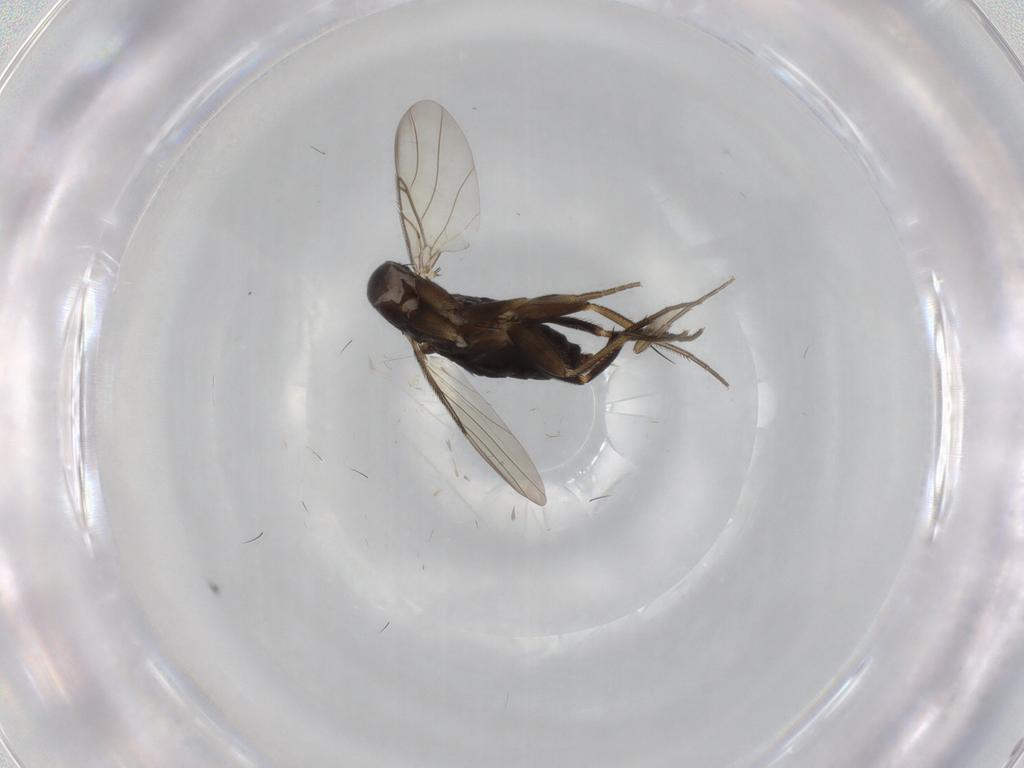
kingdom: Animalia
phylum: Arthropoda
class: Insecta
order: Diptera
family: Phoridae
